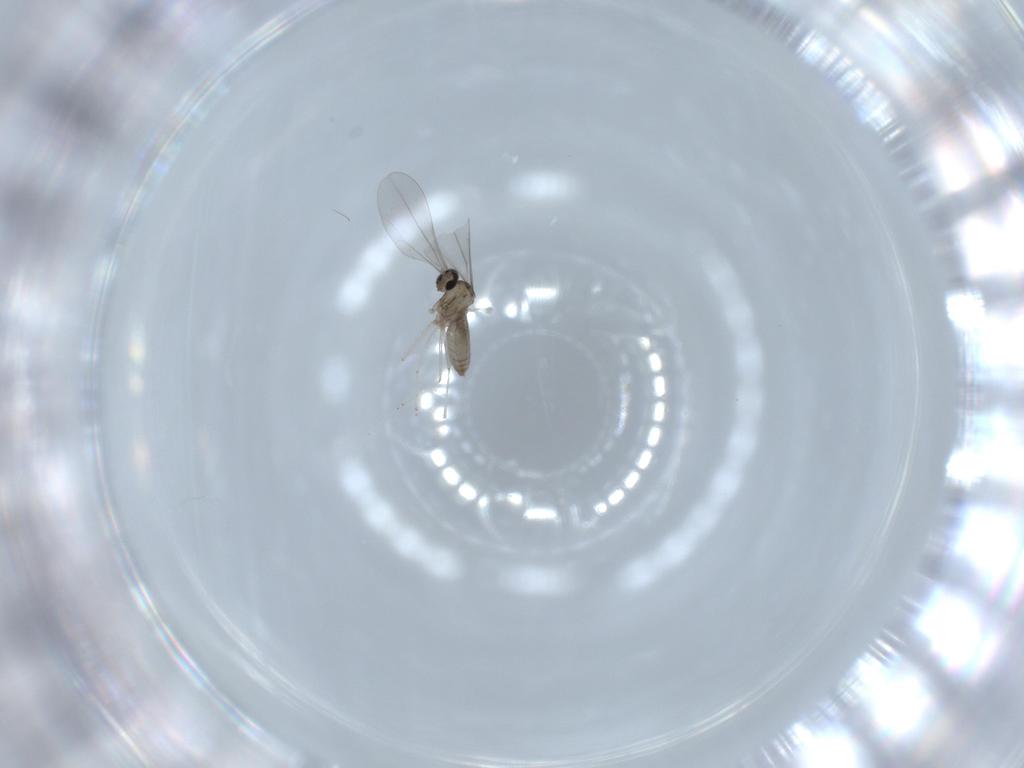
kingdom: Animalia
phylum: Arthropoda
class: Insecta
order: Diptera
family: Cecidomyiidae
